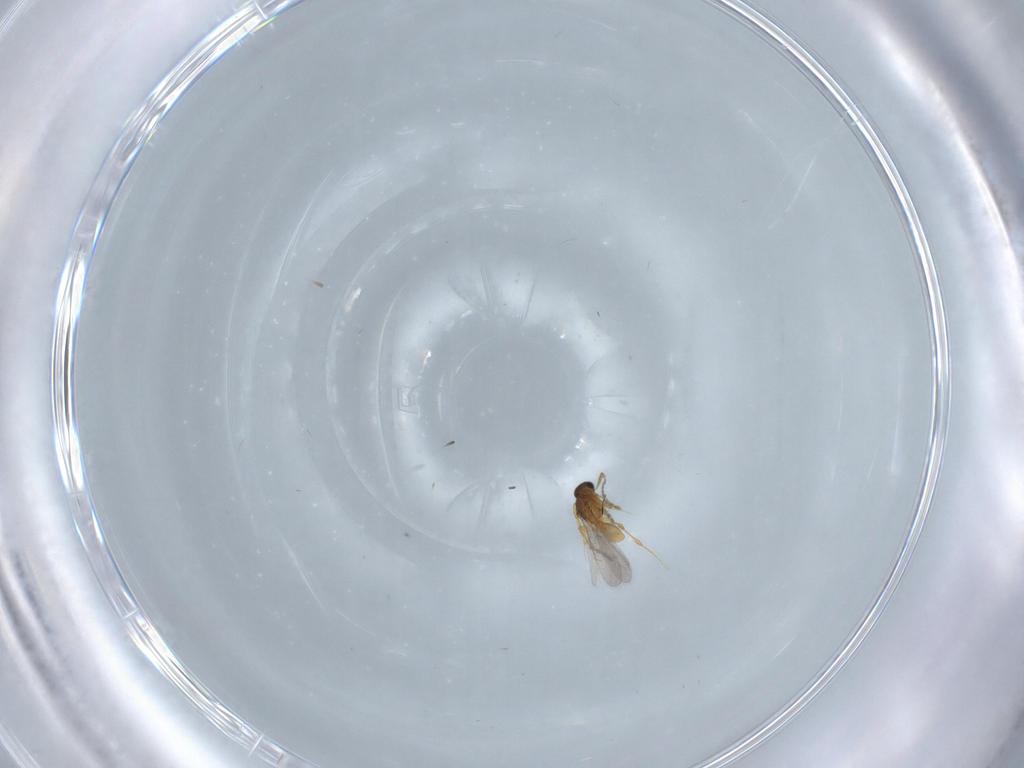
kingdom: Animalia
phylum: Arthropoda
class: Insecta
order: Hymenoptera
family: Platygastridae
